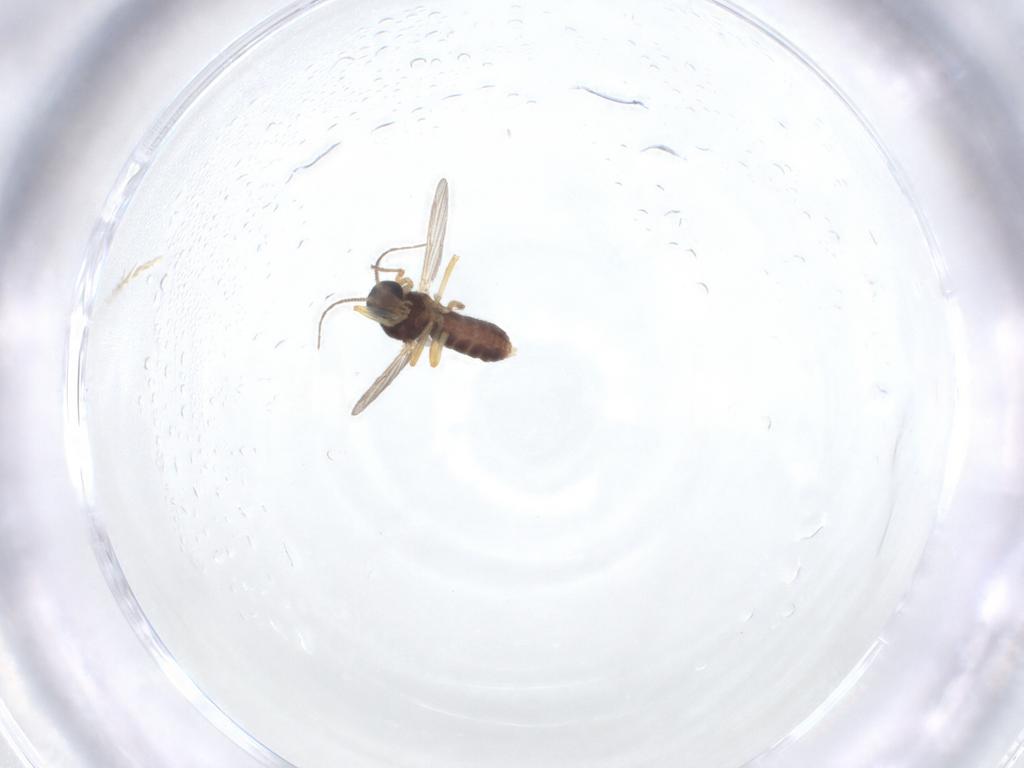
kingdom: Animalia
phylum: Arthropoda
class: Insecta
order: Diptera
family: Ceratopogonidae
